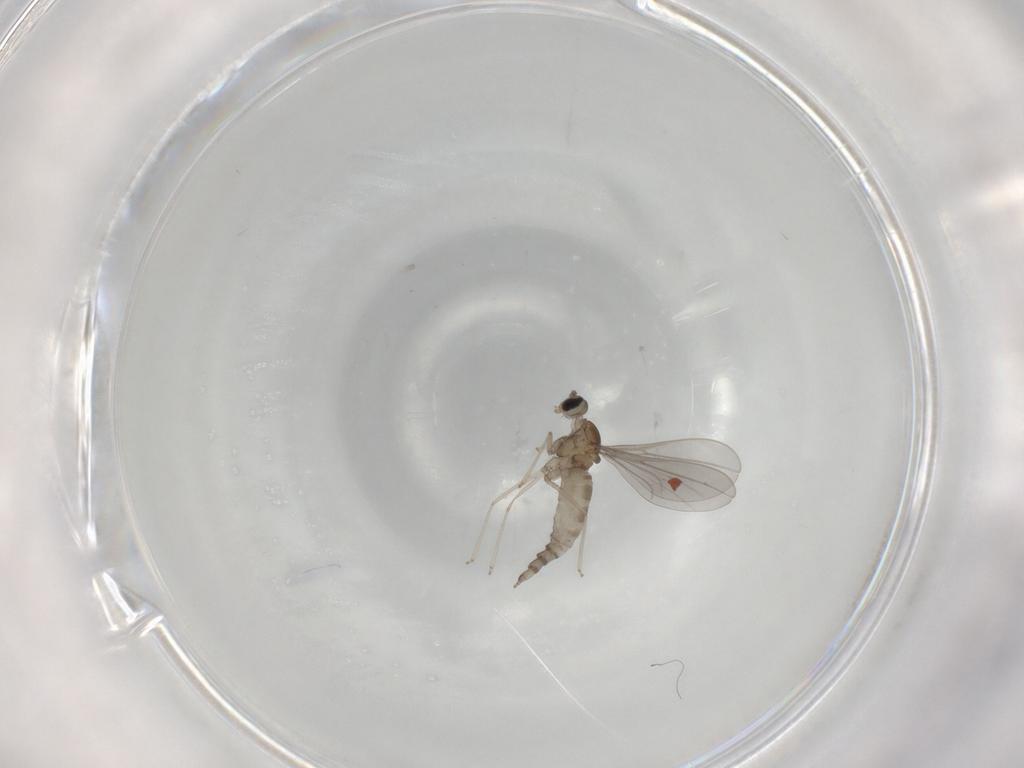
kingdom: Animalia
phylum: Arthropoda
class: Insecta
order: Diptera
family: Cecidomyiidae
